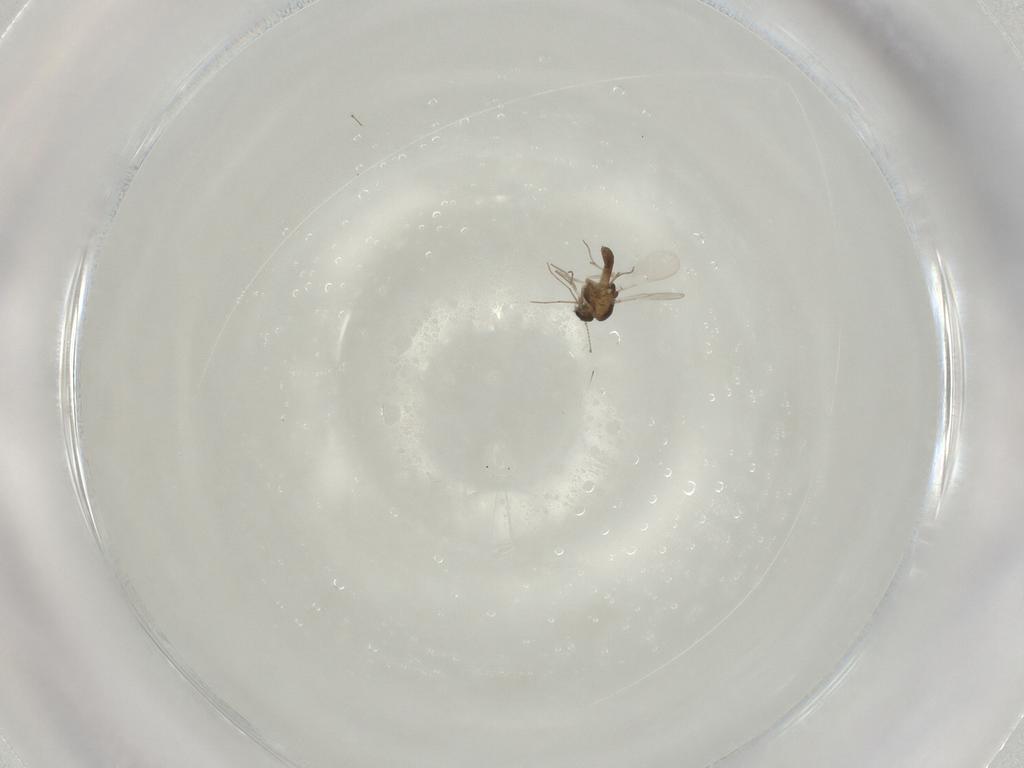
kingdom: Animalia
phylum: Arthropoda
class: Insecta
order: Diptera
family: Chironomidae
